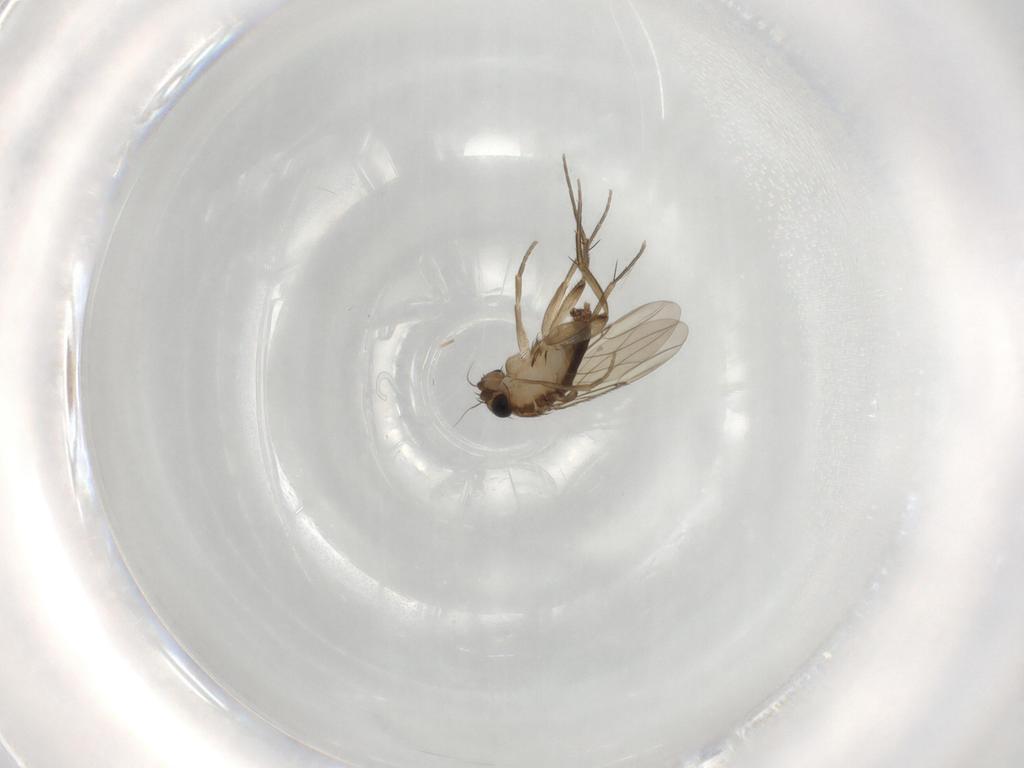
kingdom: Animalia
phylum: Arthropoda
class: Insecta
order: Diptera
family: Phoridae
